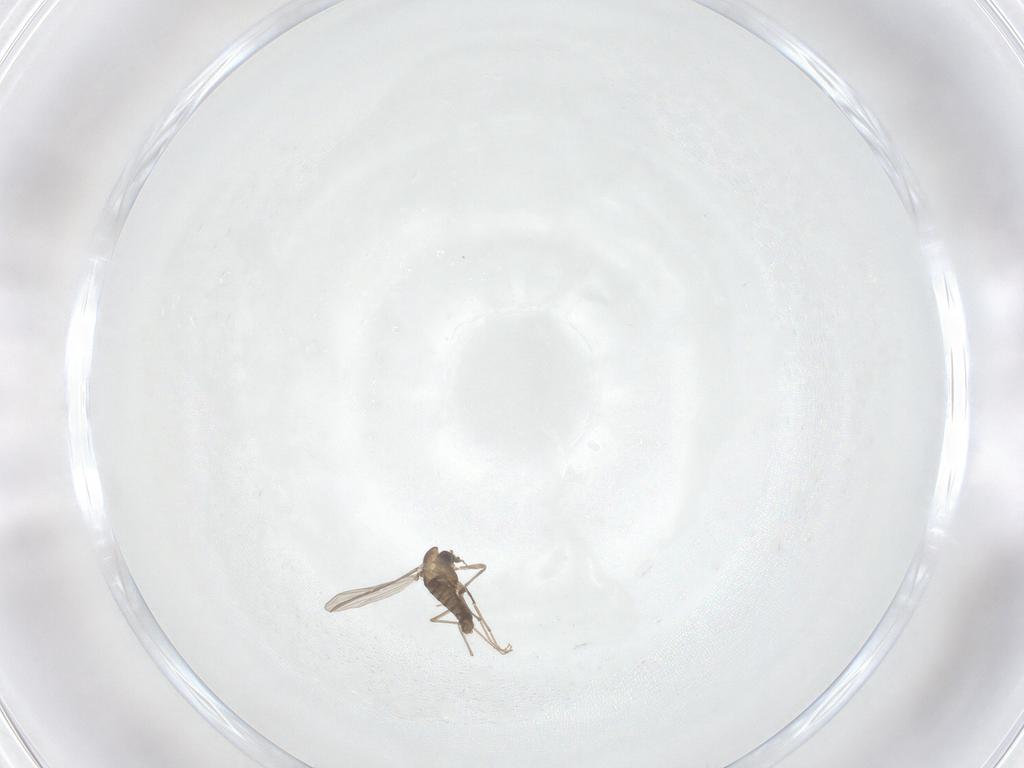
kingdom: Animalia
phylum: Arthropoda
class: Insecta
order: Diptera
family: Chironomidae
